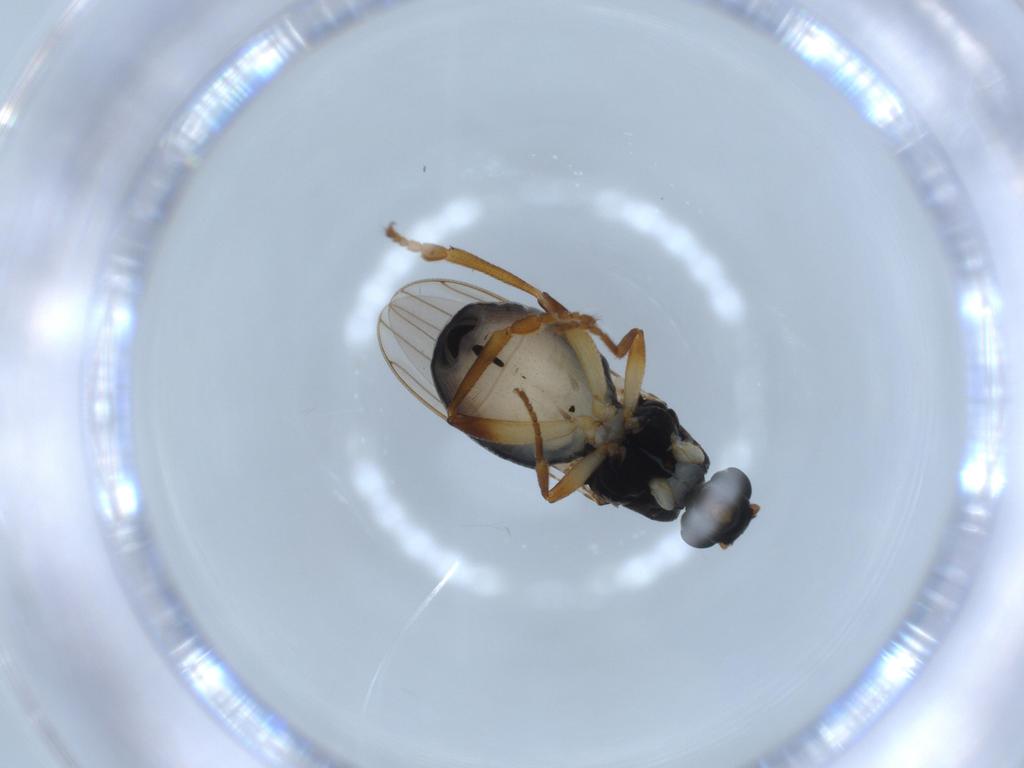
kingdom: Animalia
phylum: Arthropoda
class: Insecta
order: Diptera
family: Sphaeroceridae
